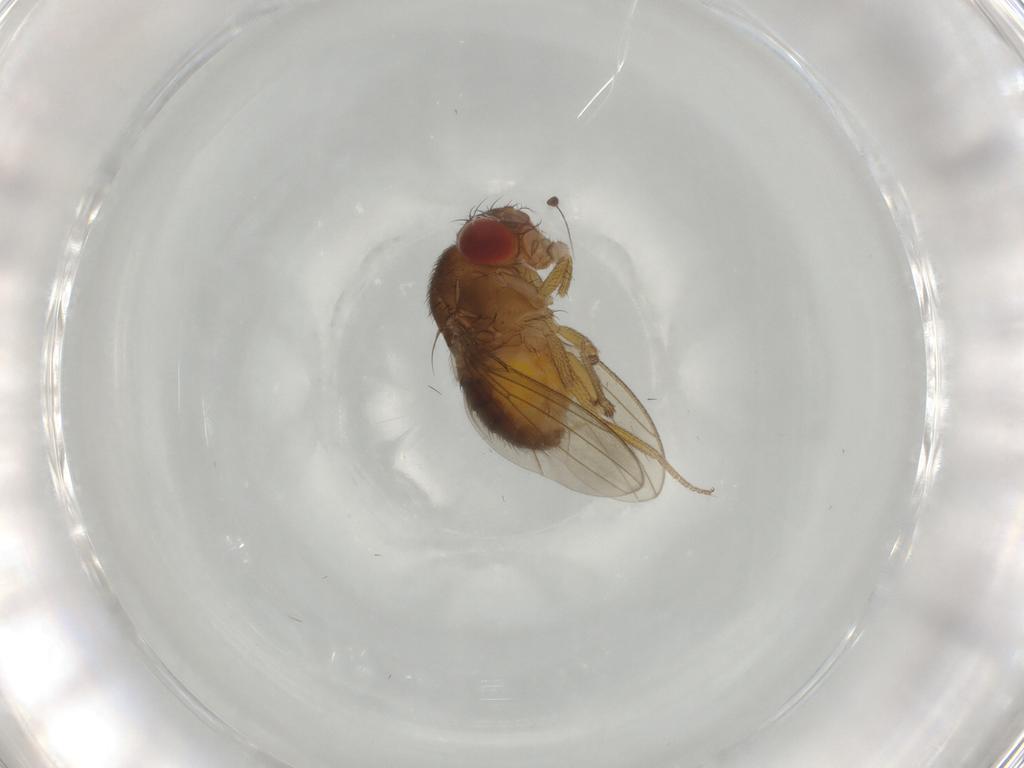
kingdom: Animalia
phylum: Arthropoda
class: Insecta
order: Diptera
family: Drosophilidae
